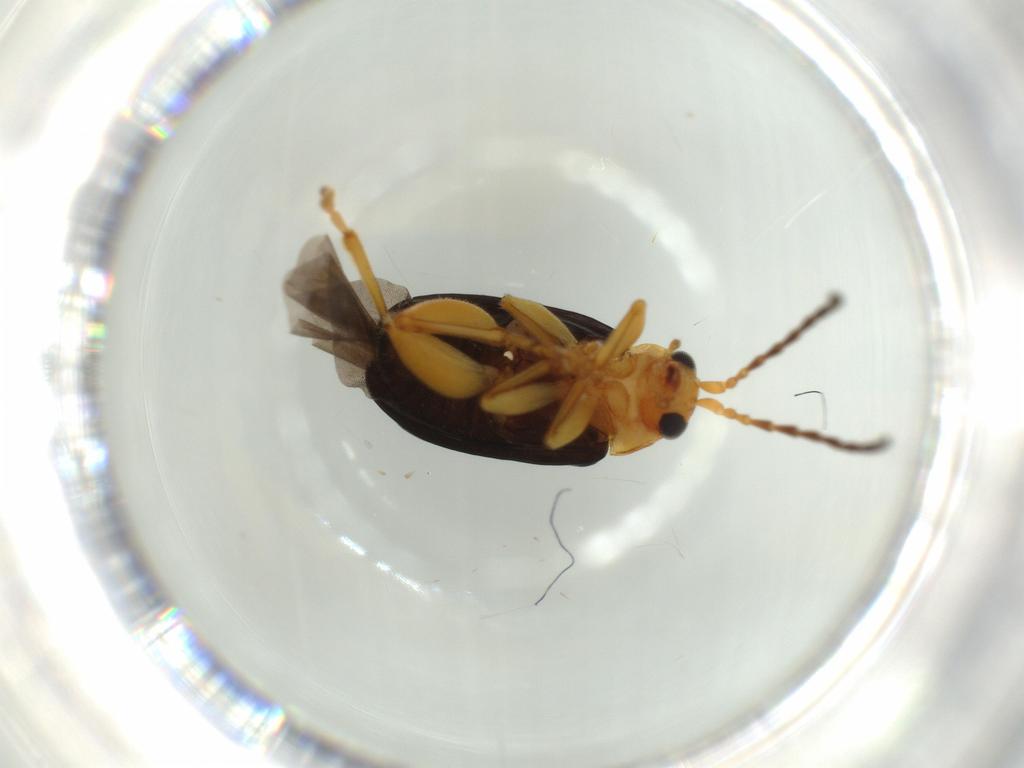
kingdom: Animalia
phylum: Arthropoda
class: Insecta
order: Coleoptera
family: Chrysomelidae
